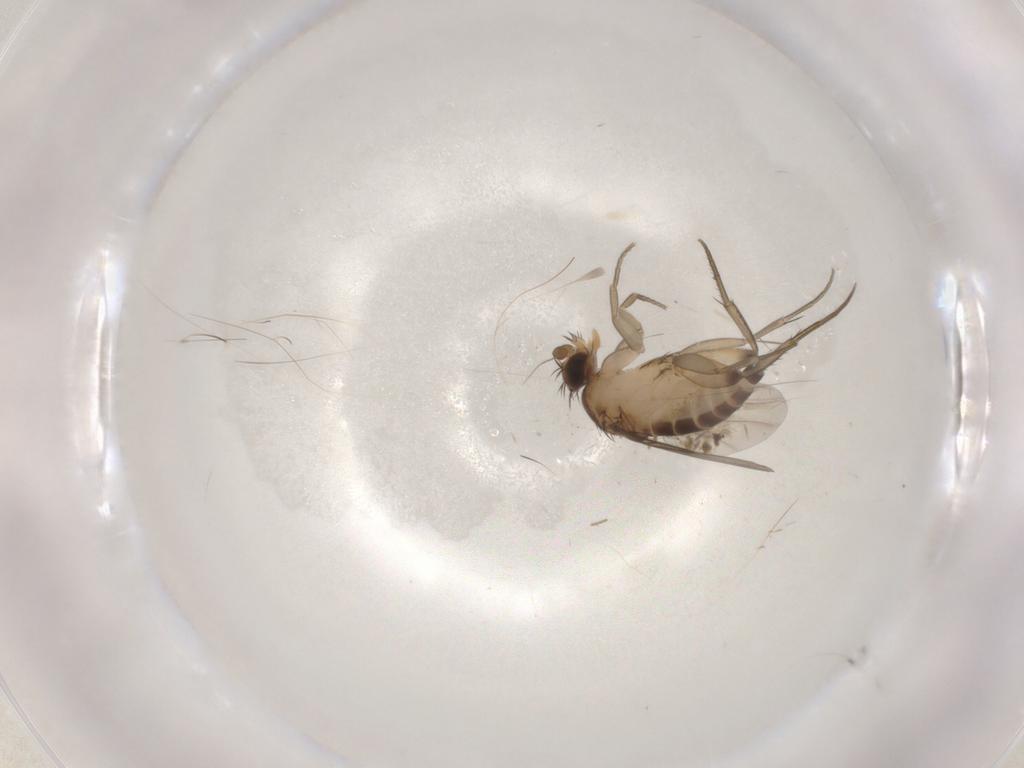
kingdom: Animalia
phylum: Arthropoda
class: Insecta
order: Diptera
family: Phoridae
